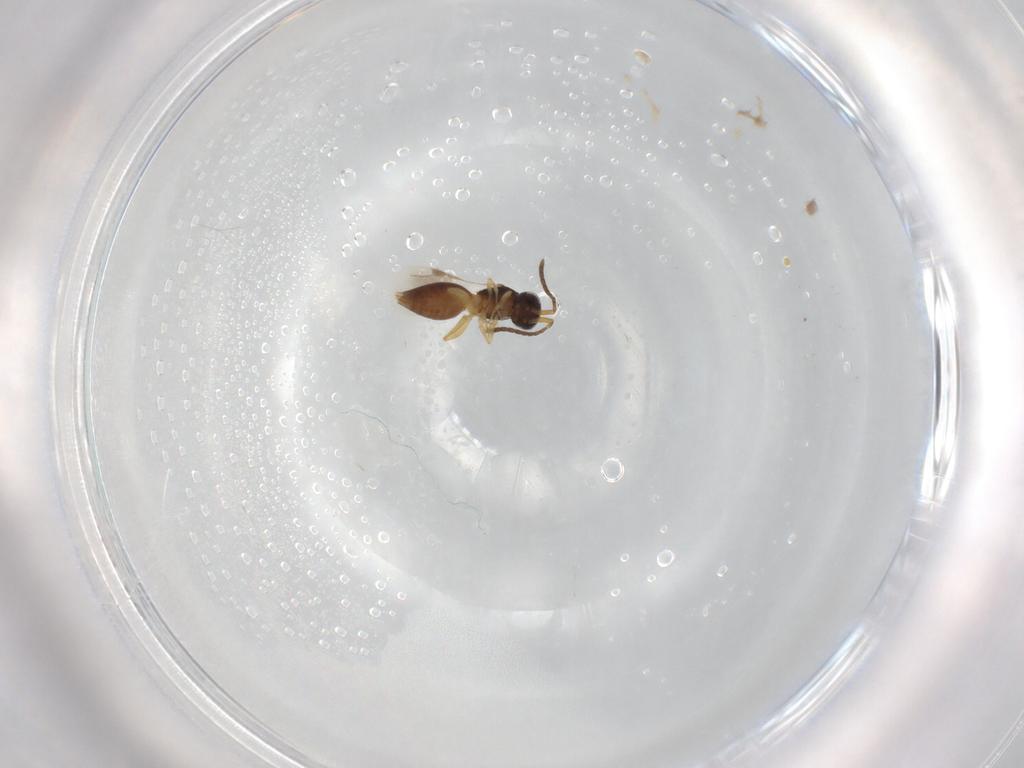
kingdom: Animalia
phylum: Arthropoda
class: Insecta
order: Hymenoptera
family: Megaspilidae
